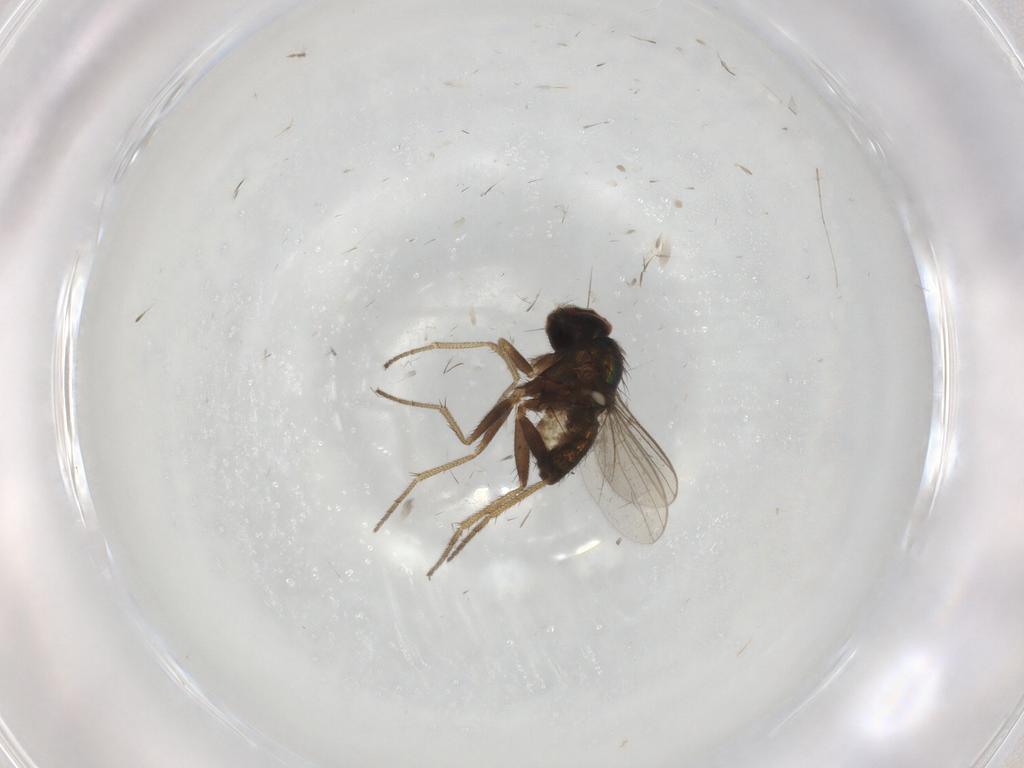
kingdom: Animalia
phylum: Arthropoda
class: Insecta
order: Diptera
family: Dolichopodidae
